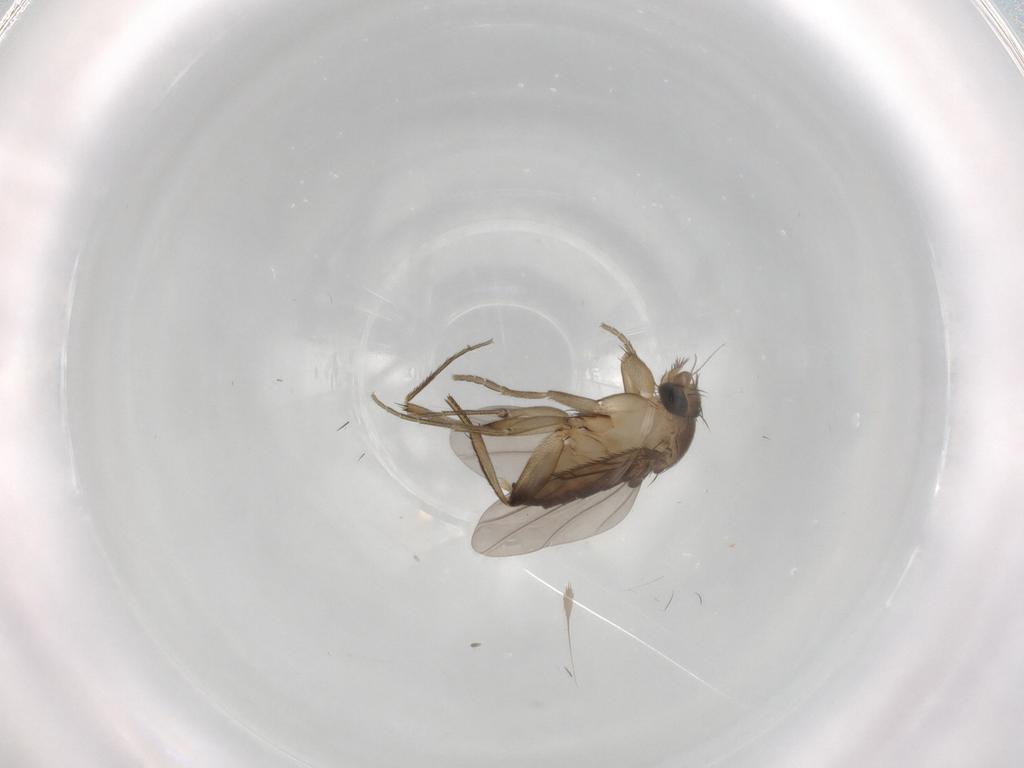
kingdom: Animalia
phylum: Arthropoda
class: Insecta
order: Diptera
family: Phoridae
